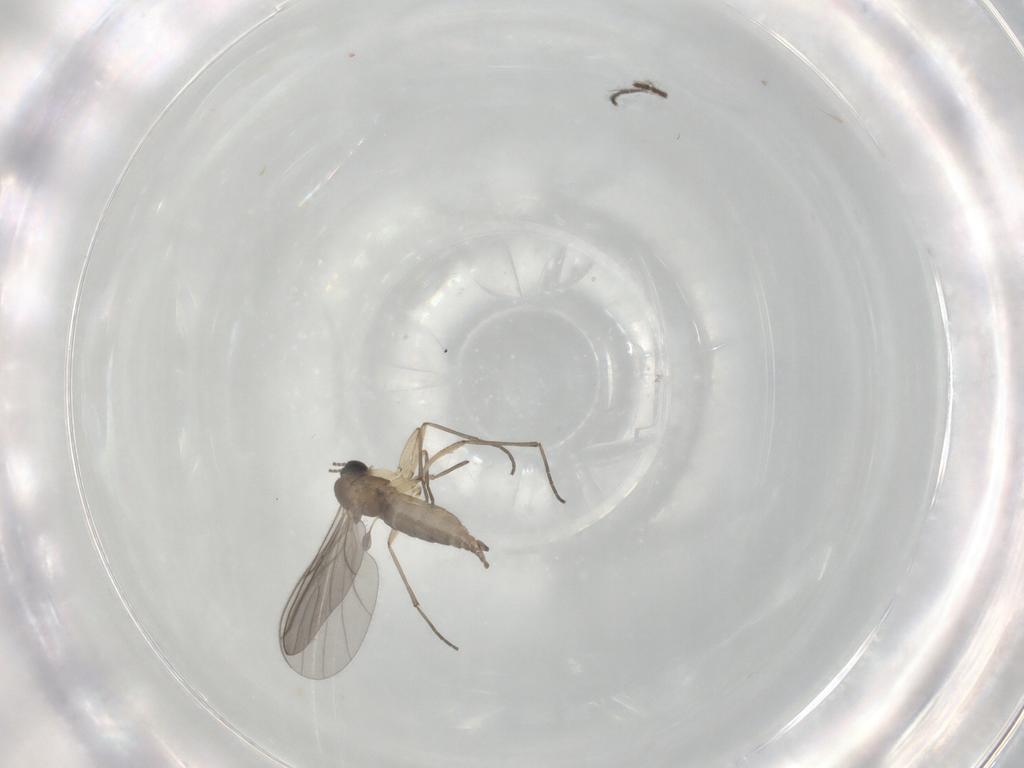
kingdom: Animalia
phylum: Arthropoda
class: Insecta
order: Diptera
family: Sciaridae
